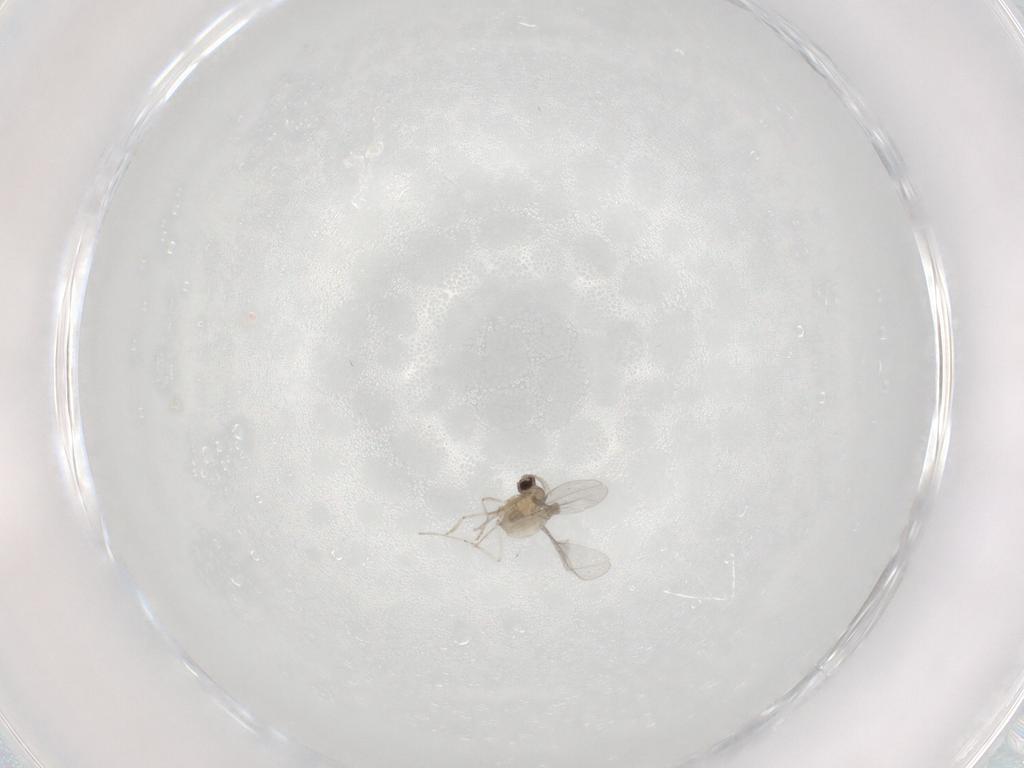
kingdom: Animalia
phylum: Arthropoda
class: Insecta
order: Diptera
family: Cecidomyiidae
